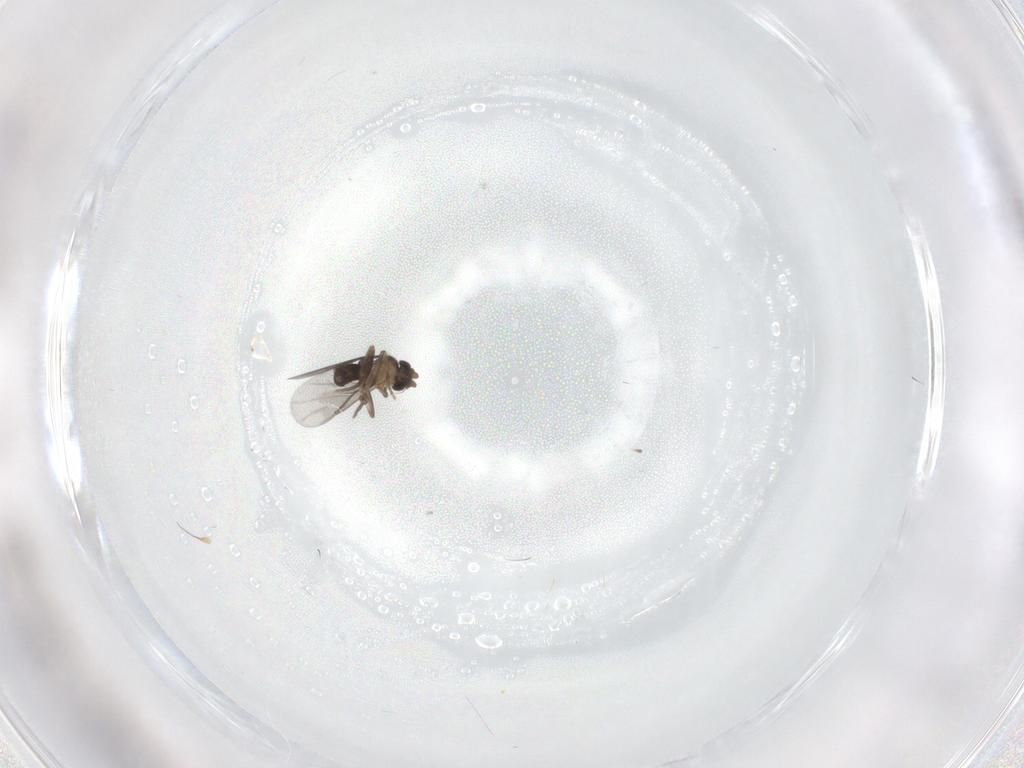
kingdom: Animalia
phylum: Arthropoda
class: Insecta
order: Diptera
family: Hybotidae
